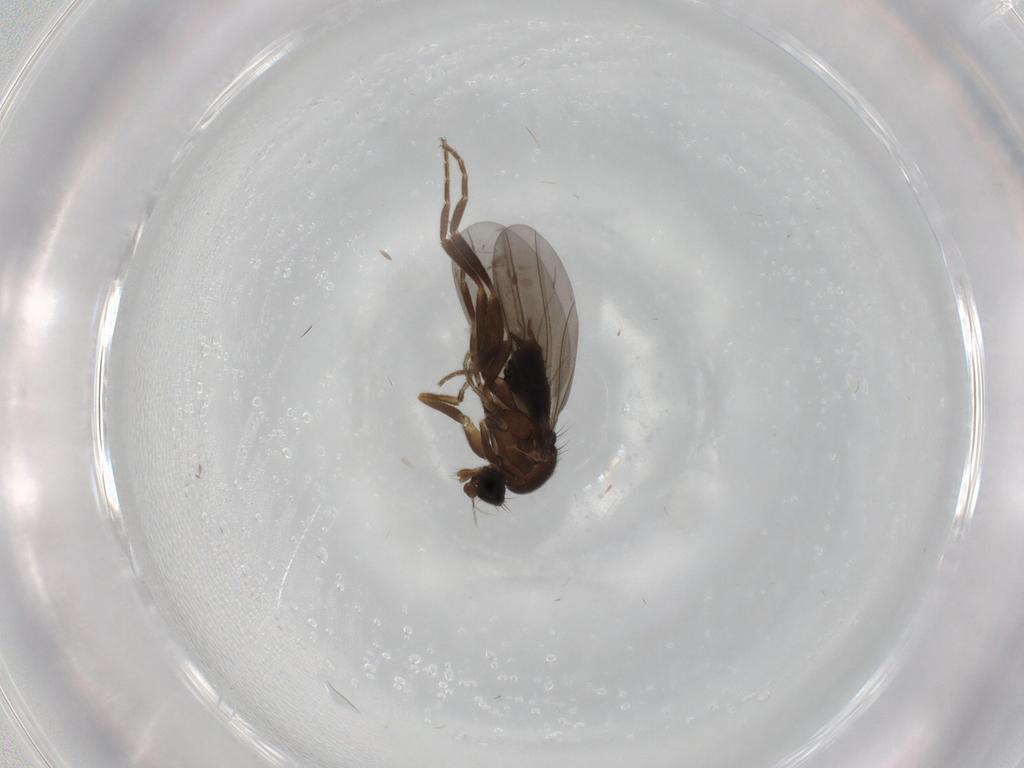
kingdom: Animalia
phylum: Arthropoda
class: Insecta
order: Diptera
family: Phoridae
